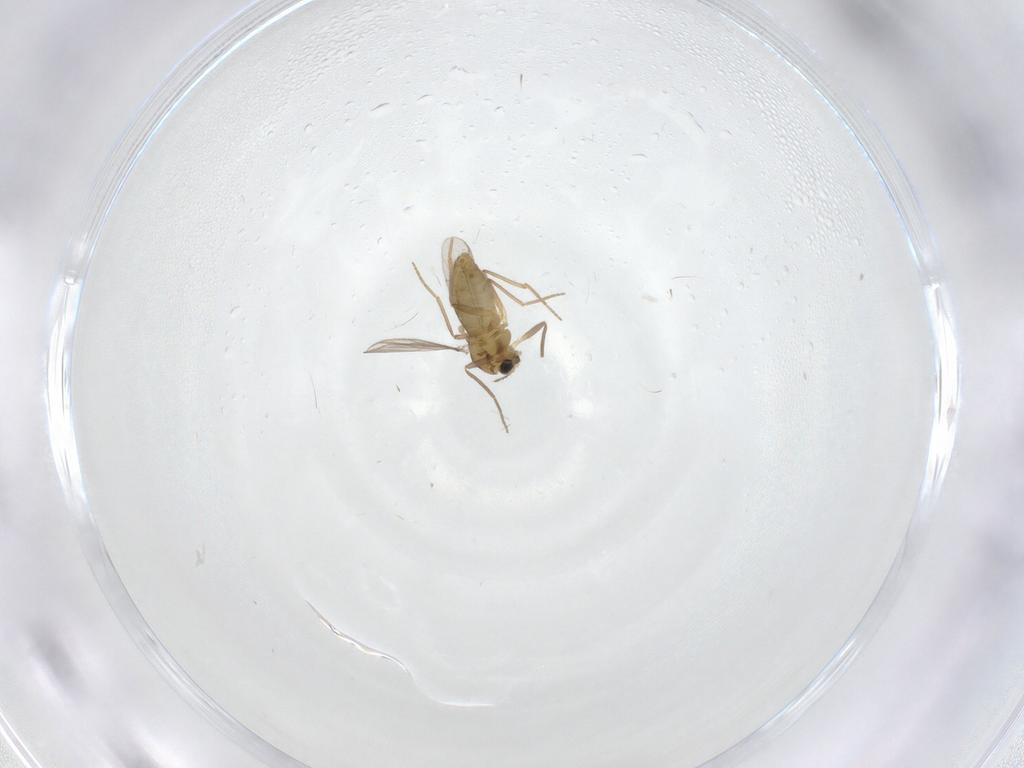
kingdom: Animalia
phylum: Arthropoda
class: Insecta
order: Diptera
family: Chironomidae
